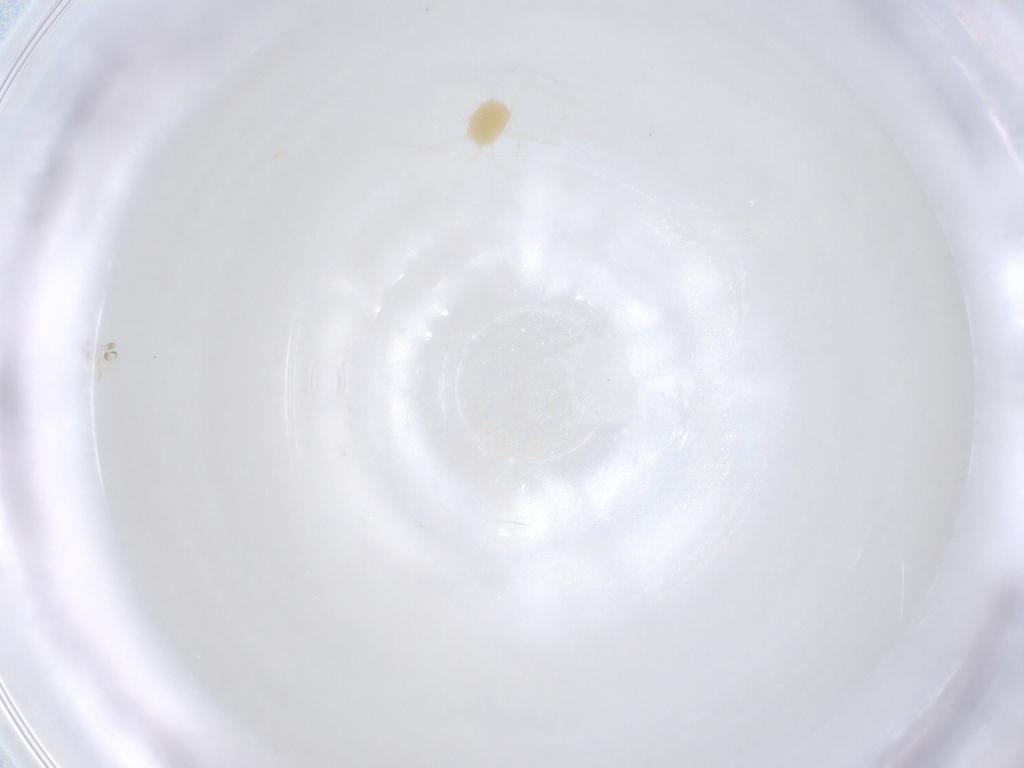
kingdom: Animalia
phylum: Arthropoda
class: Arachnida
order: Trombidiformes
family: Tetranychidae
